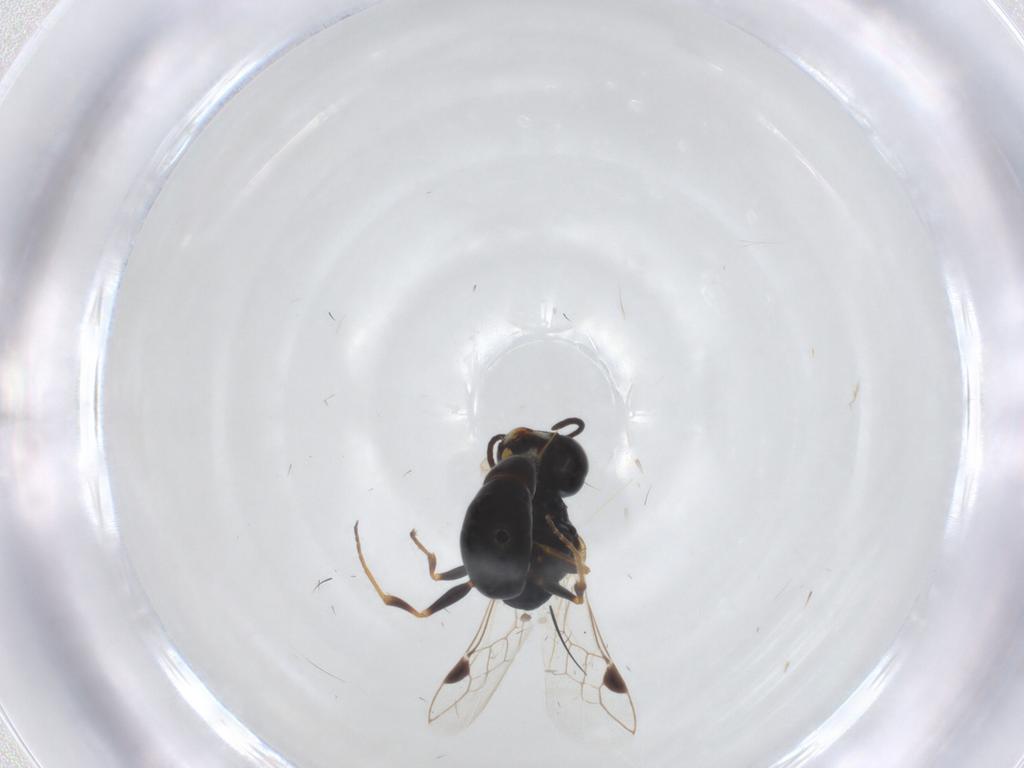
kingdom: Animalia
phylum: Arthropoda
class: Insecta
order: Hymenoptera
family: Crabronidae
